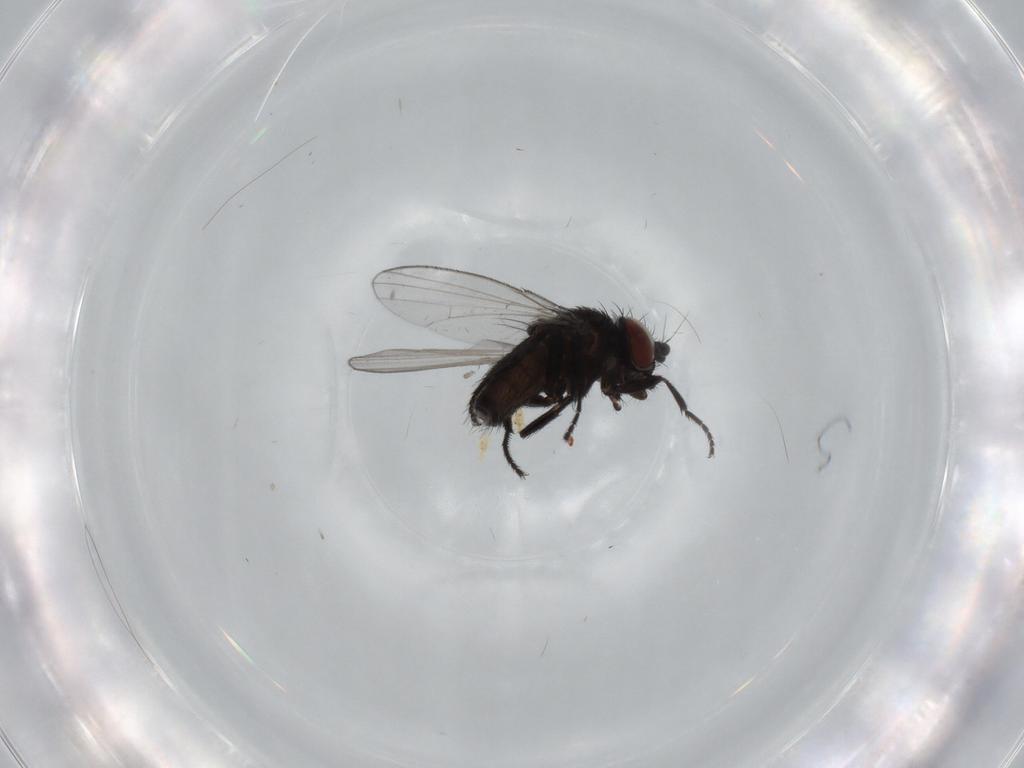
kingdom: Animalia
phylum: Arthropoda
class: Insecta
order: Diptera
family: Milichiidae
